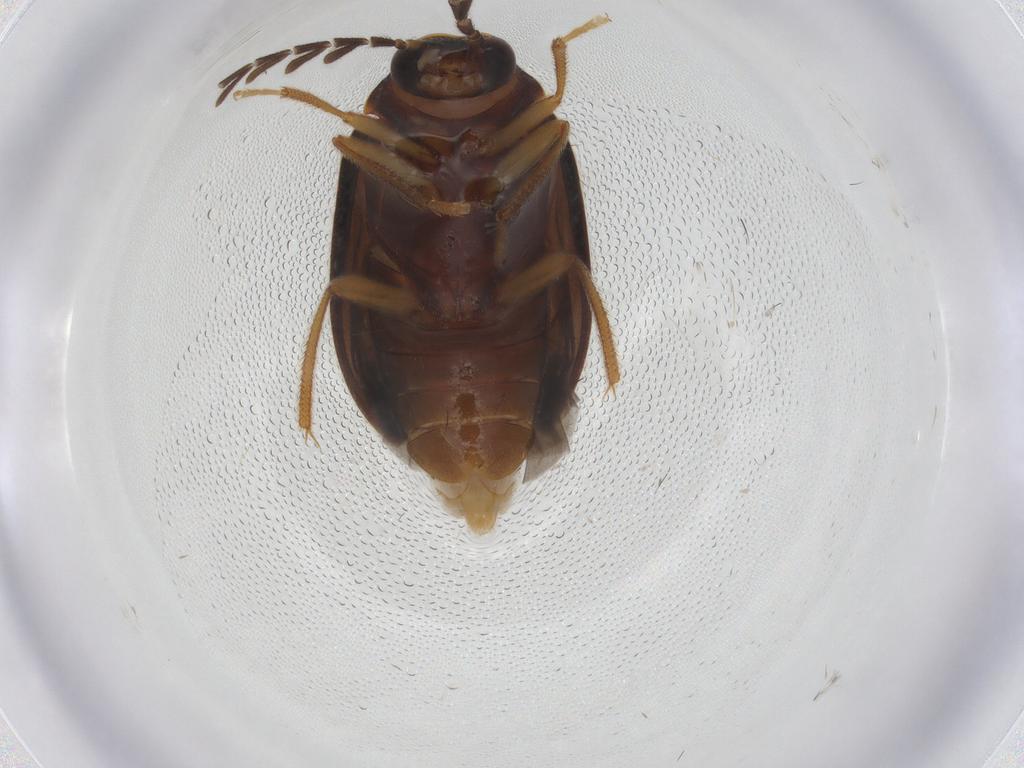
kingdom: Animalia
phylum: Arthropoda
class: Insecta
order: Coleoptera
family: Ptilodactylidae
